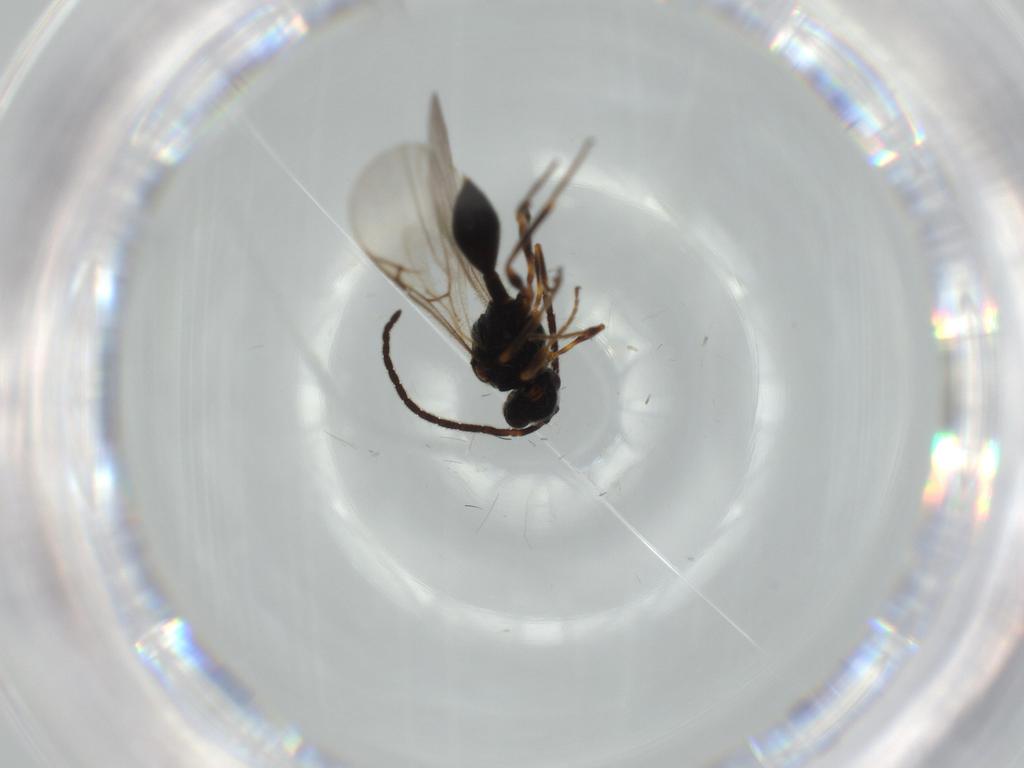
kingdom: Animalia
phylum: Arthropoda
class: Insecta
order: Hymenoptera
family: Diapriidae
